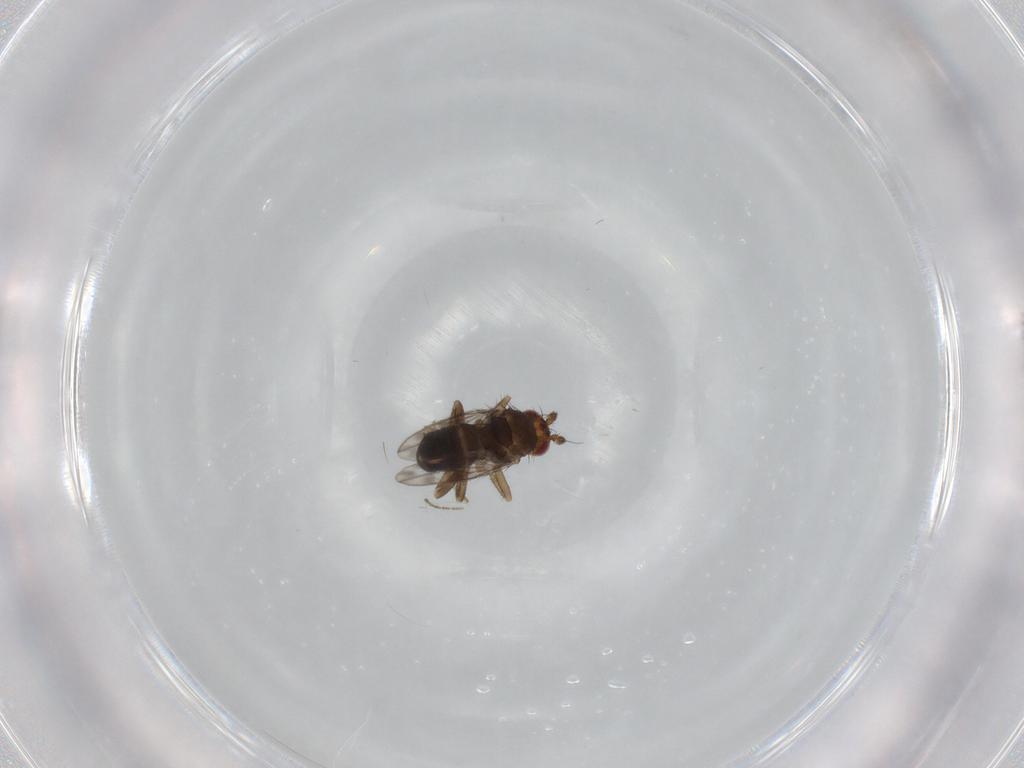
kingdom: Animalia
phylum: Arthropoda
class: Insecta
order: Diptera
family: Sphaeroceridae
